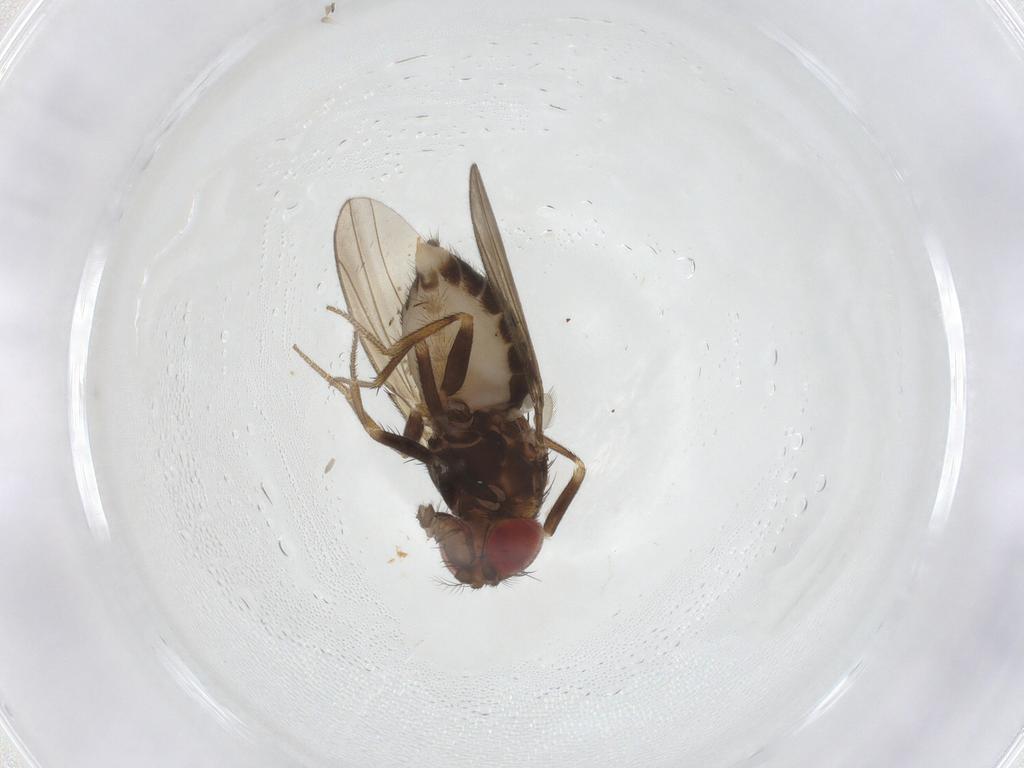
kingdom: Animalia
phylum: Arthropoda
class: Insecta
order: Diptera
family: Drosophilidae
